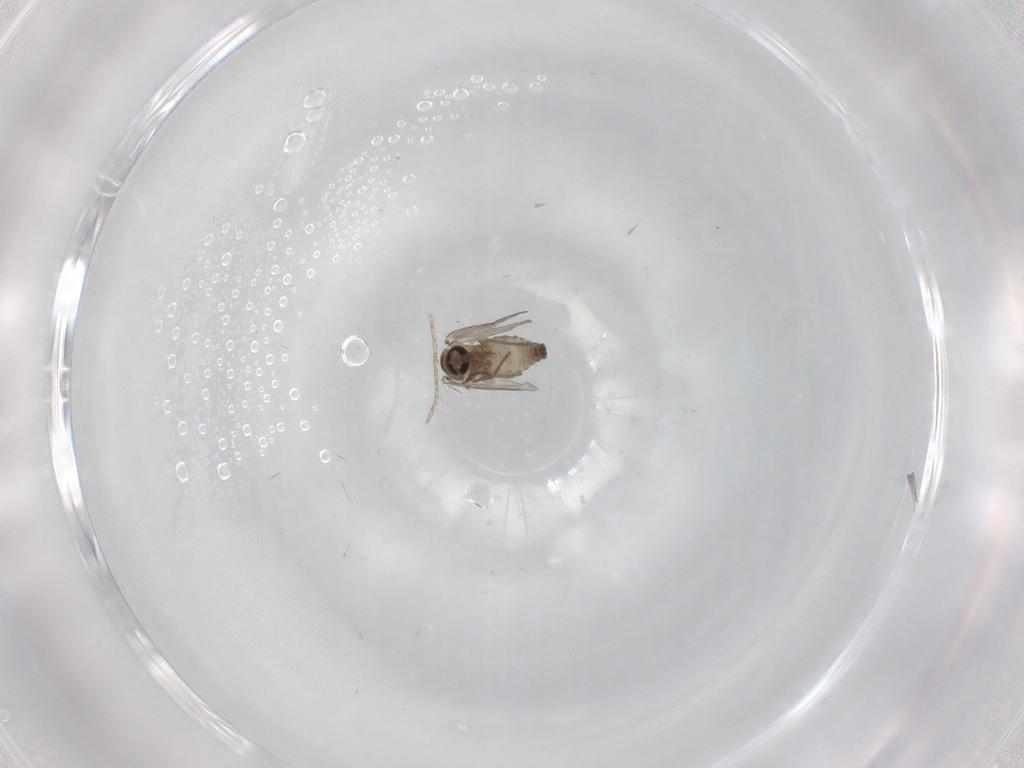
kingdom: Animalia
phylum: Arthropoda
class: Insecta
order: Diptera
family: Psychodidae
